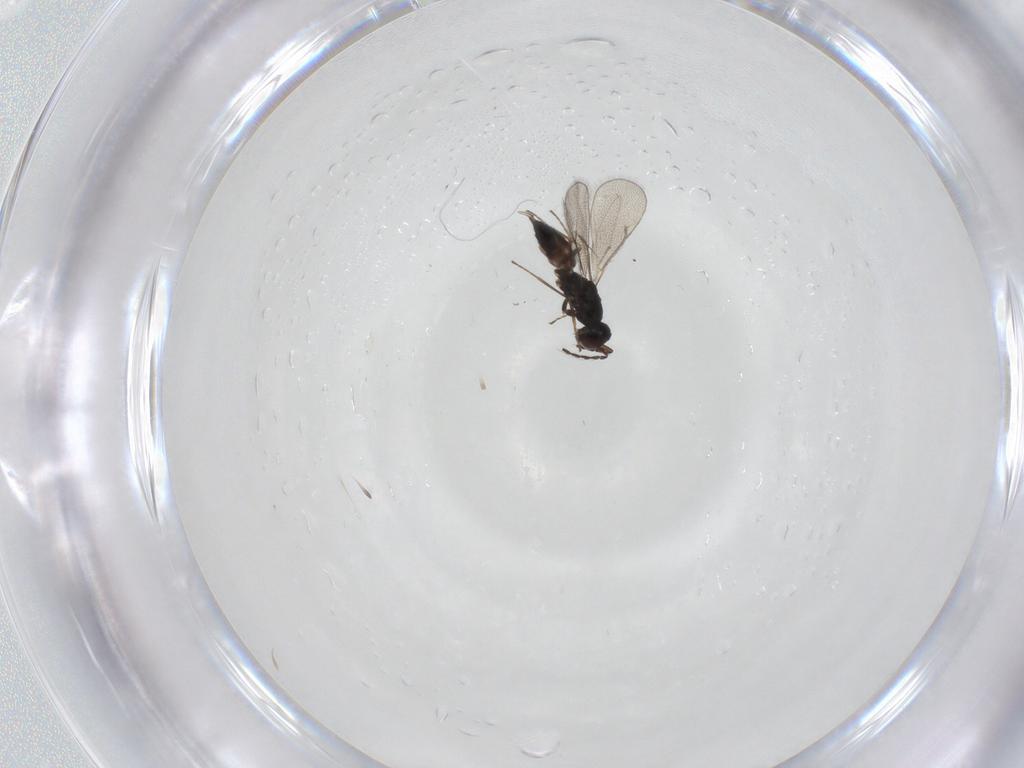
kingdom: Animalia
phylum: Arthropoda
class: Insecta
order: Hymenoptera
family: Eulophidae
